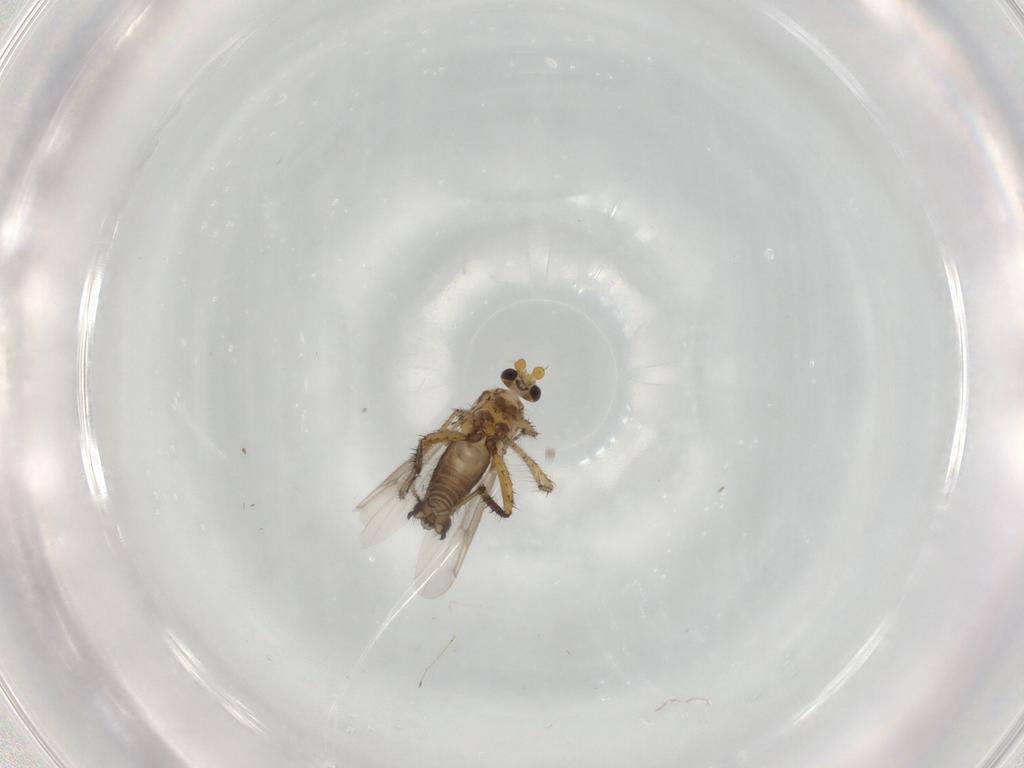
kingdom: Animalia
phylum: Arthropoda
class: Insecta
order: Diptera
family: Ceratopogonidae
